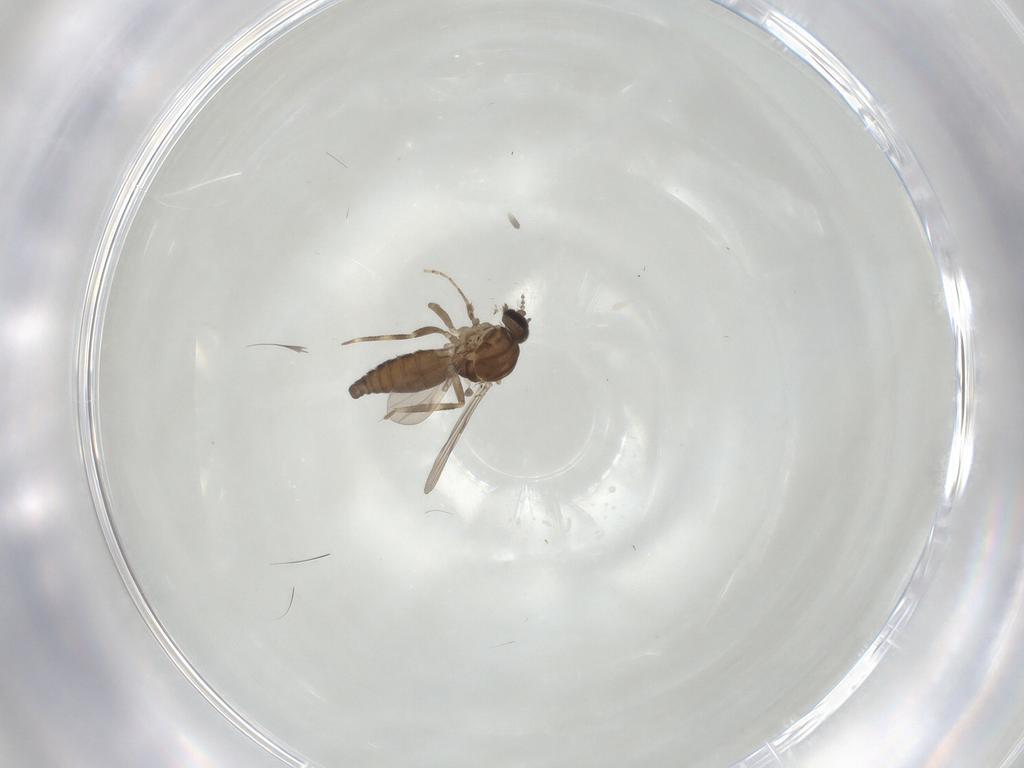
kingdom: Animalia
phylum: Arthropoda
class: Insecta
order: Diptera
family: Ceratopogonidae
